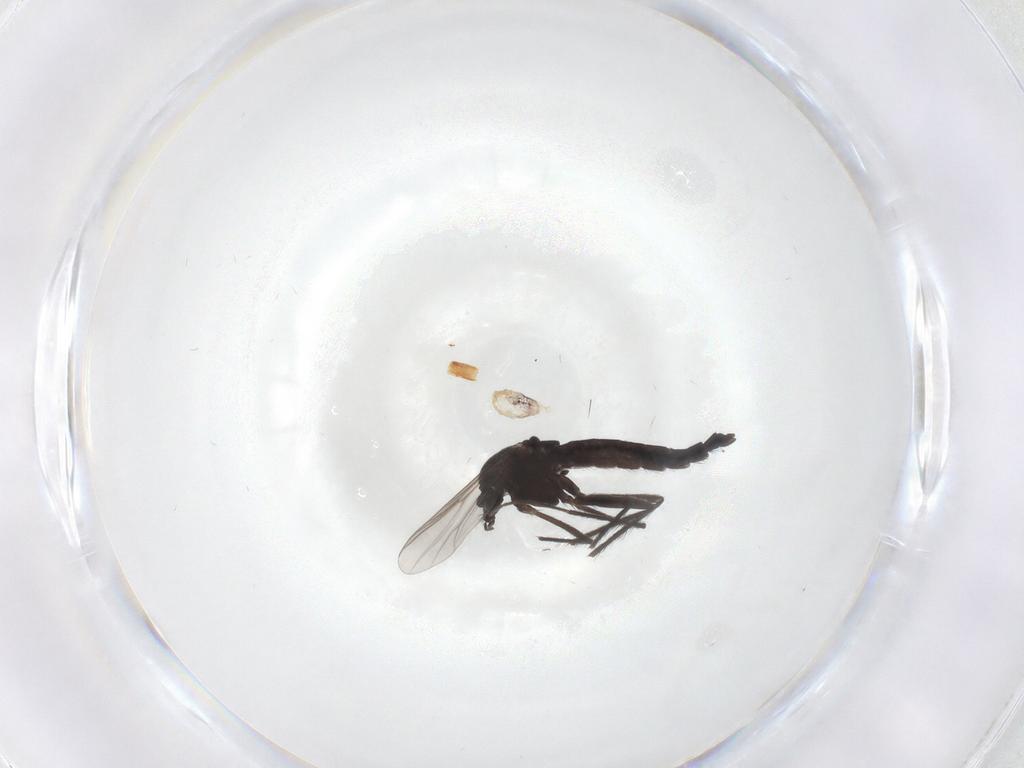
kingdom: Animalia
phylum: Arthropoda
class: Insecta
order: Diptera
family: Chironomidae
